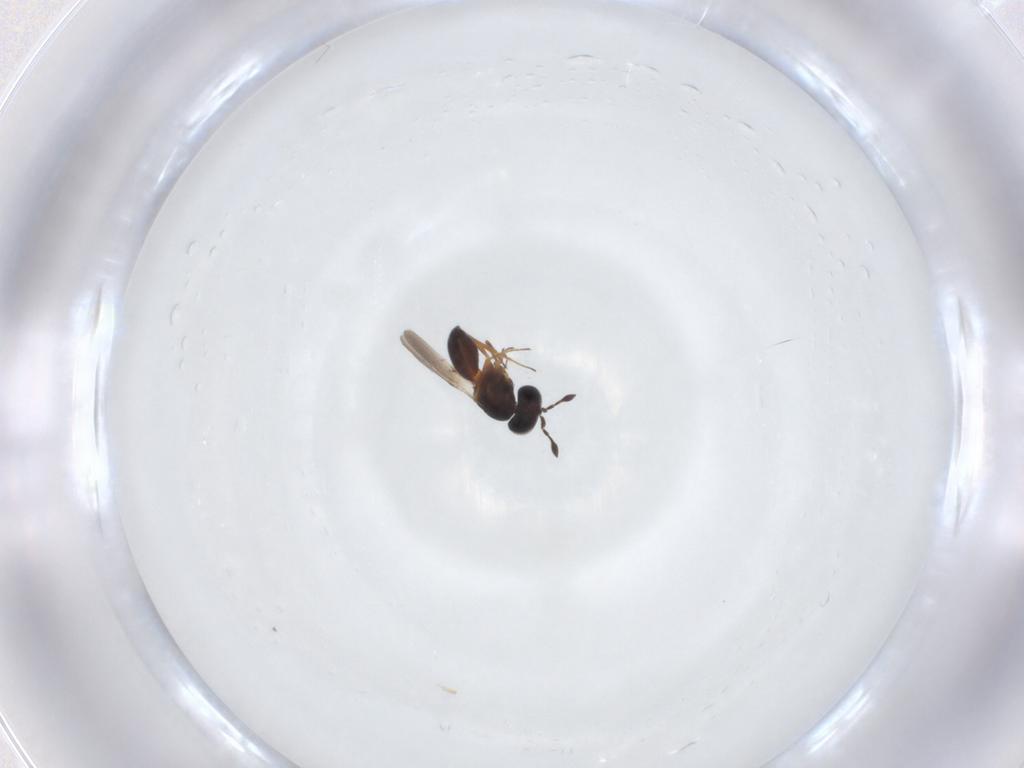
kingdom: Animalia
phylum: Arthropoda
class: Insecta
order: Hymenoptera
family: Scelionidae
